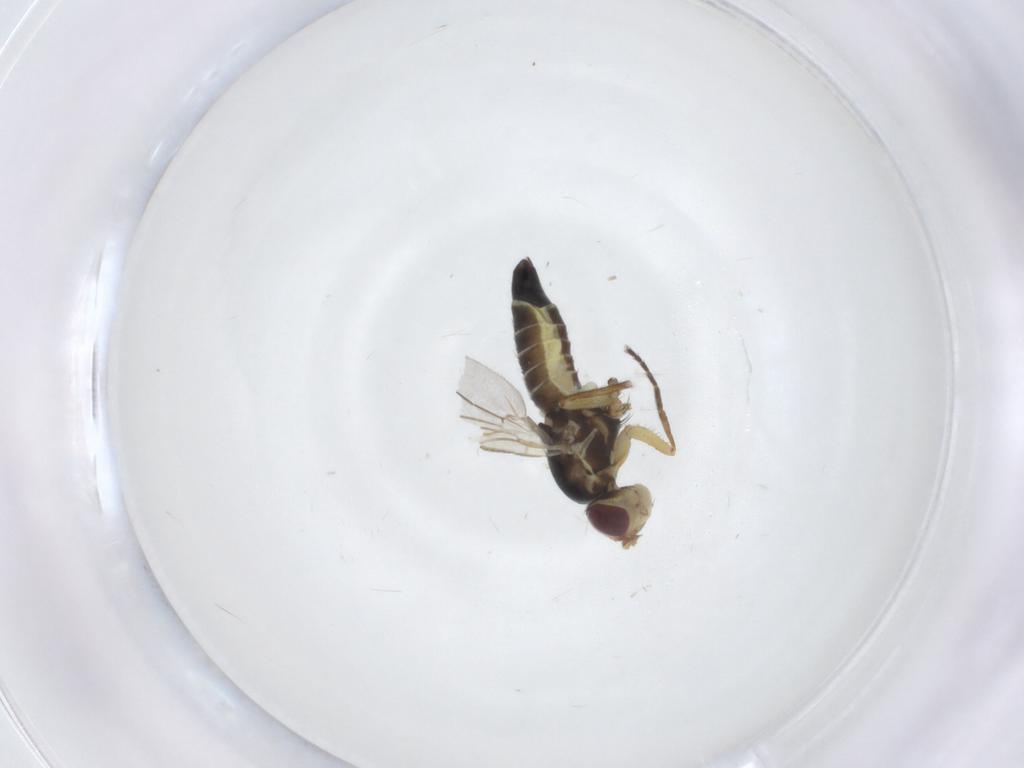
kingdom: Animalia
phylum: Arthropoda
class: Insecta
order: Diptera
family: Agromyzidae
